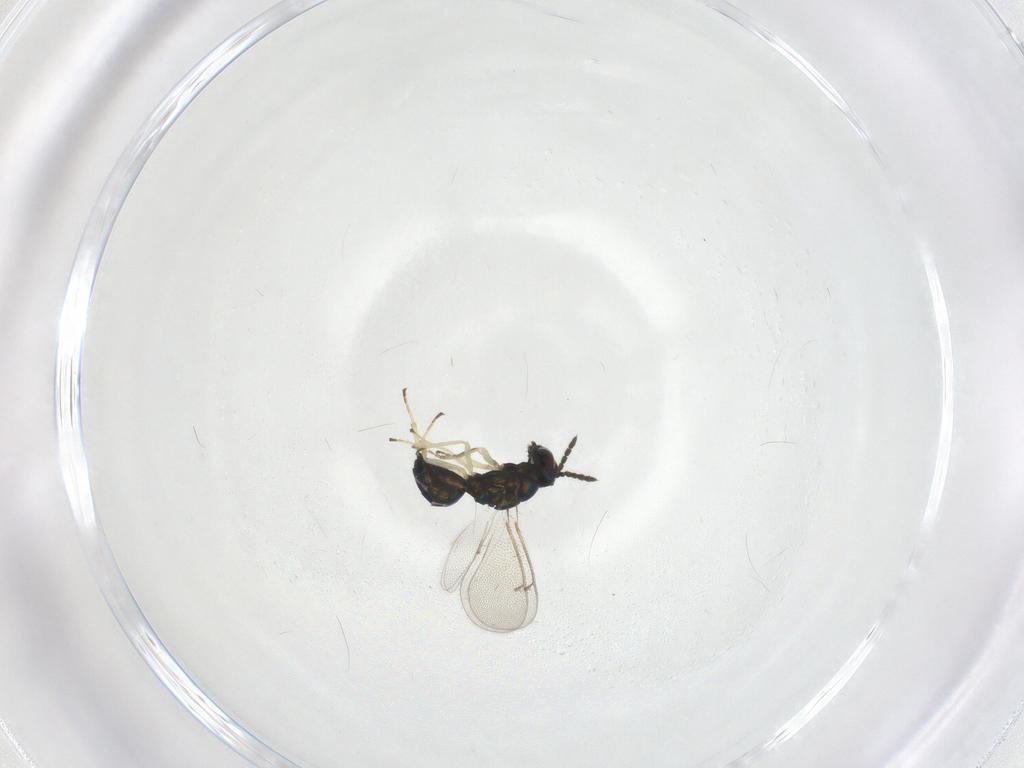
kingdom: Animalia
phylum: Arthropoda
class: Insecta
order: Hymenoptera
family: Eulophidae
